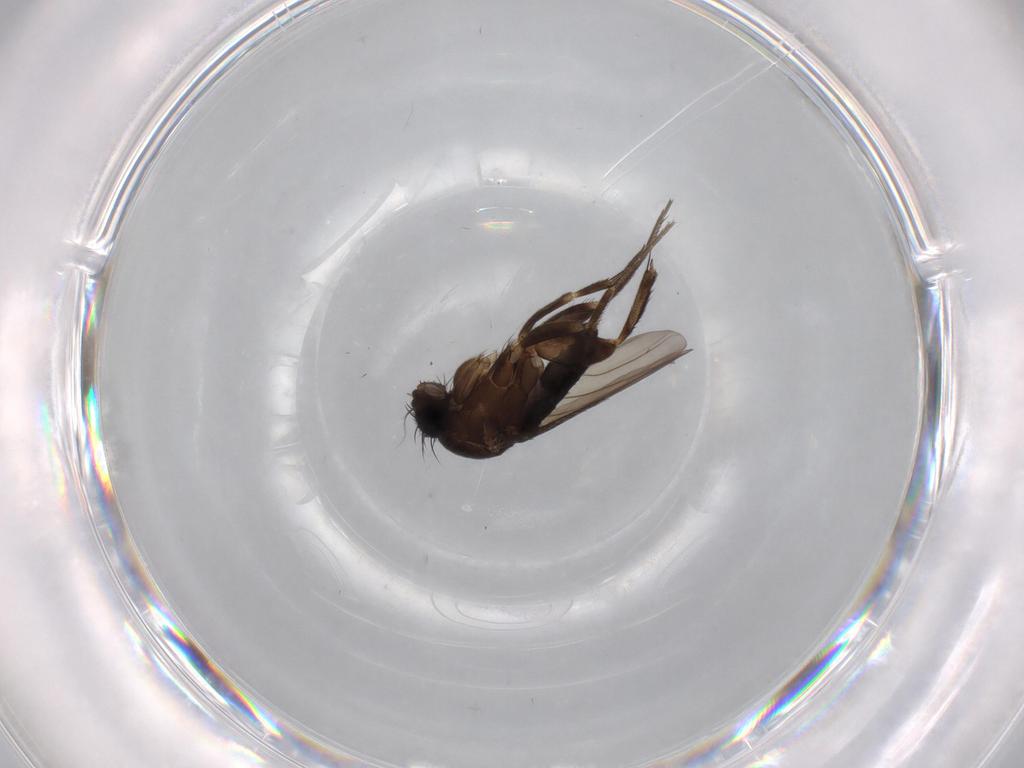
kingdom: Animalia
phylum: Arthropoda
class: Insecta
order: Diptera
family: Phoridae
